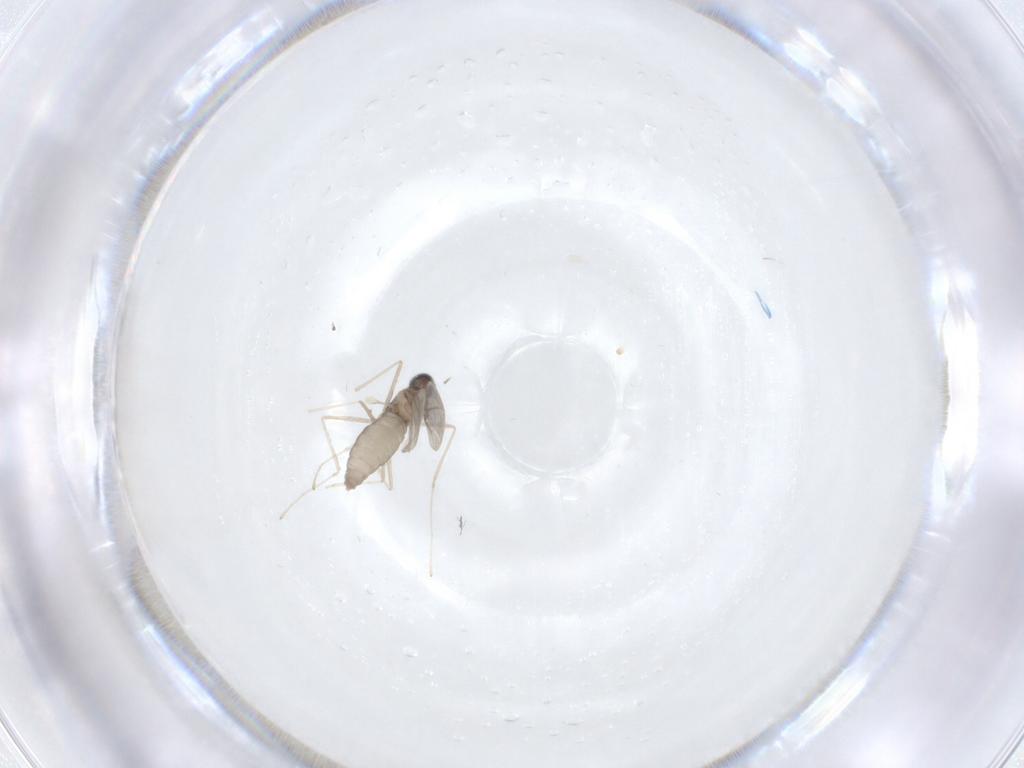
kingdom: Animalia
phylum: Arthropoda
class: Insecta
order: Diptera
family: Cecidomyiidae
